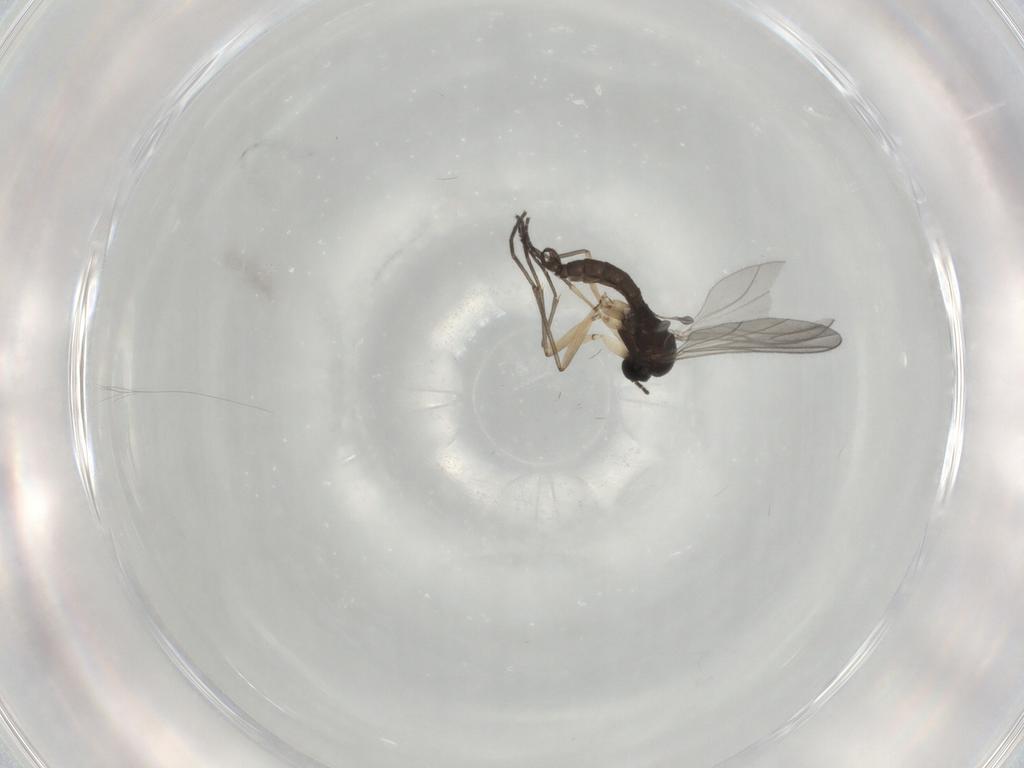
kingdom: Animalia
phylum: Arthropoda
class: Insecta
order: Diptera
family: Sciaridae
